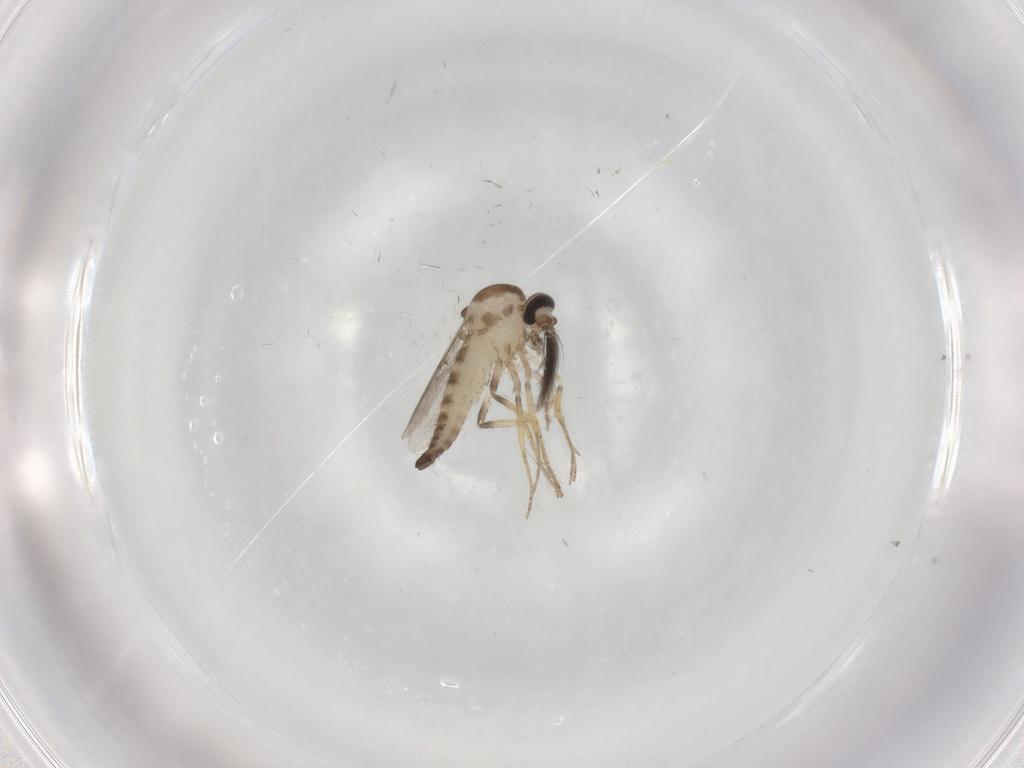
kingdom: Animalia
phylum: Arthropoda
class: Insecta
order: Diptera
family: Ceratopogonidae
